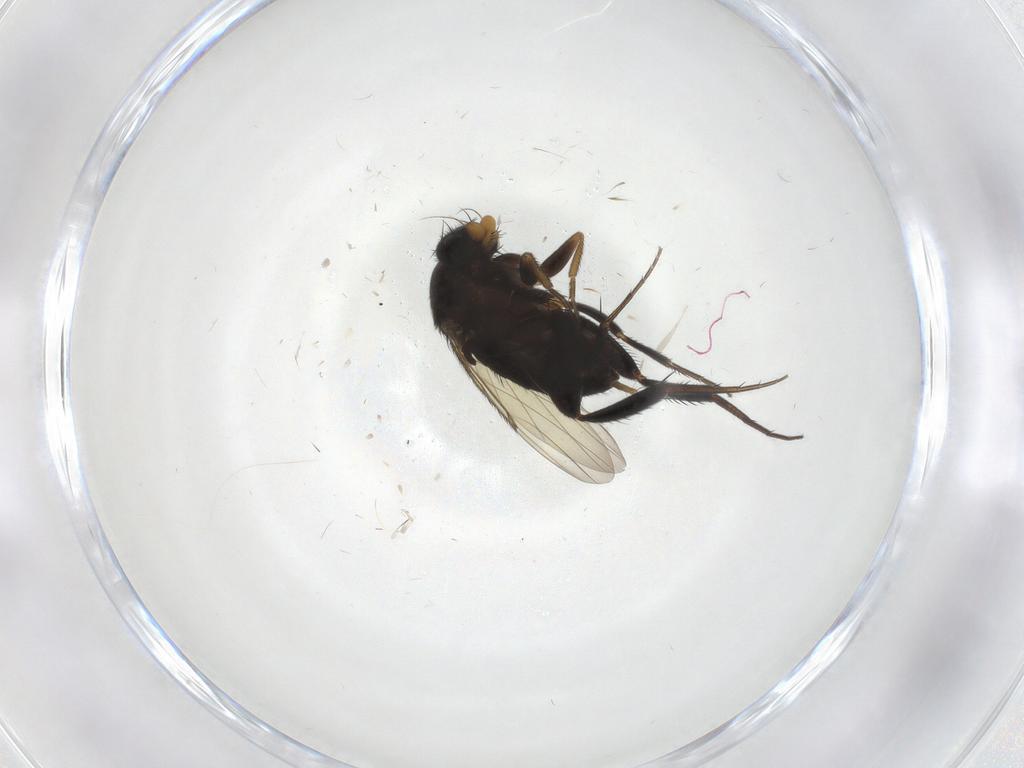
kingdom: Animalia
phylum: Arthropoda
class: Insecta
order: Diptera
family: Phoridae
